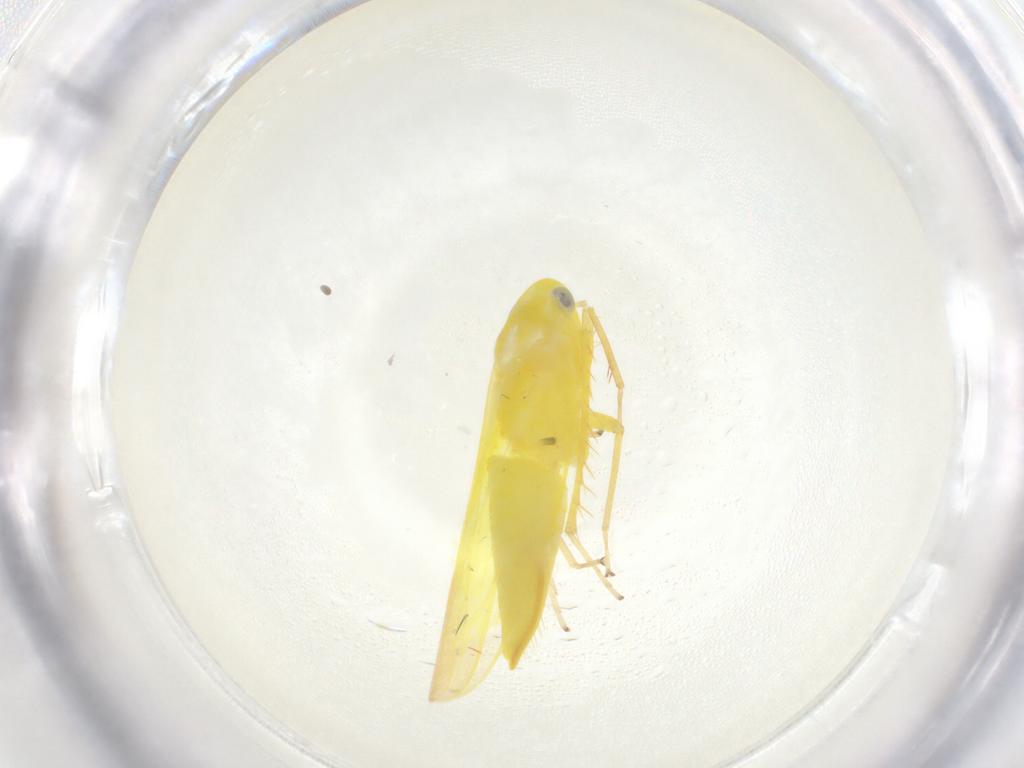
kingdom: Animalia
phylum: Arthropoda
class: Insecta
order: Hemiptera
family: Cicadellidae
